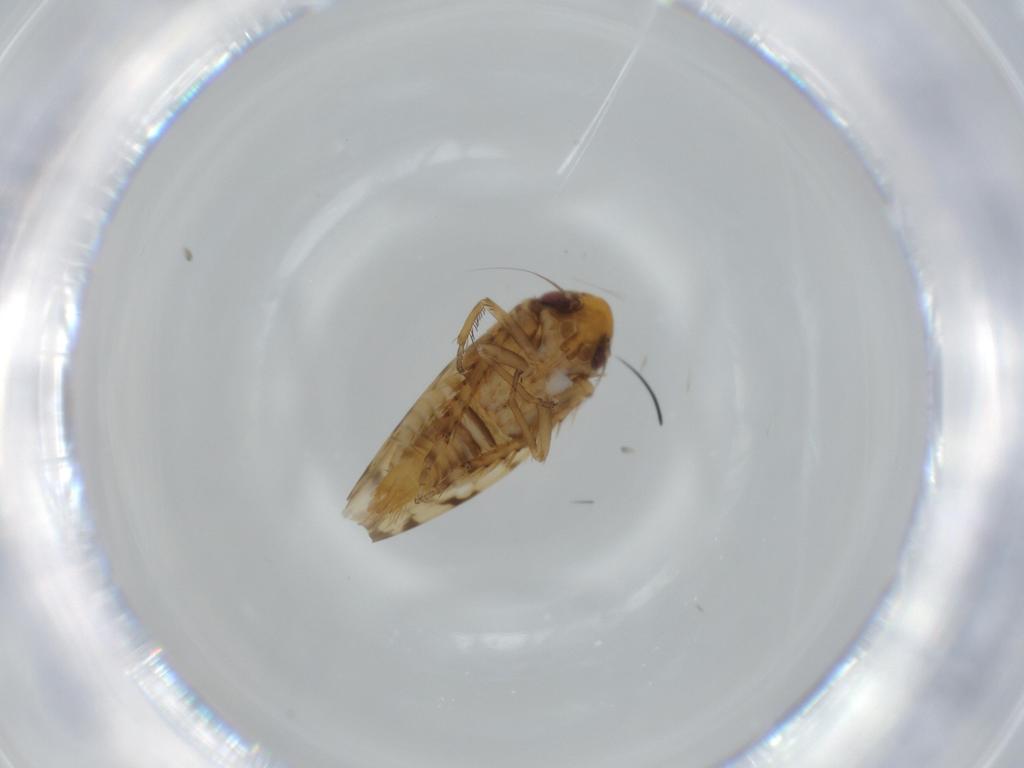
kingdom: Animalia
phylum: Arthropoda
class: Insecta
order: Hemiptera
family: Cicadellidae
